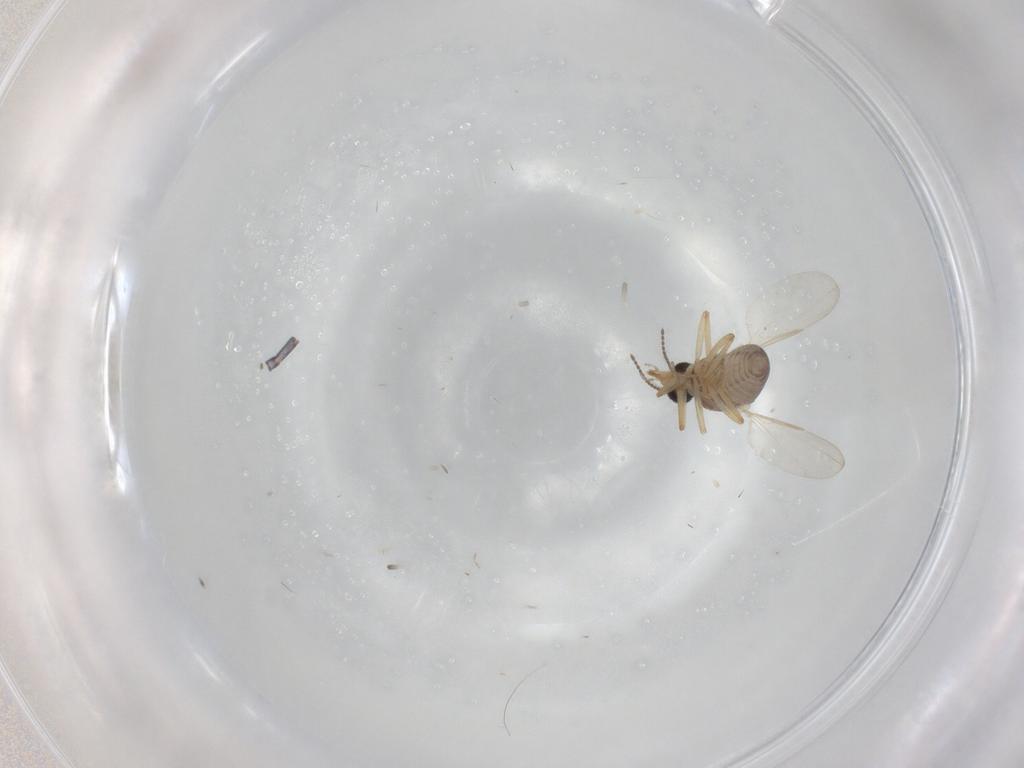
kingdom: Animalia
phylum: Arthropoda
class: Insecta
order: Diptera
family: Ceratopogonidae
